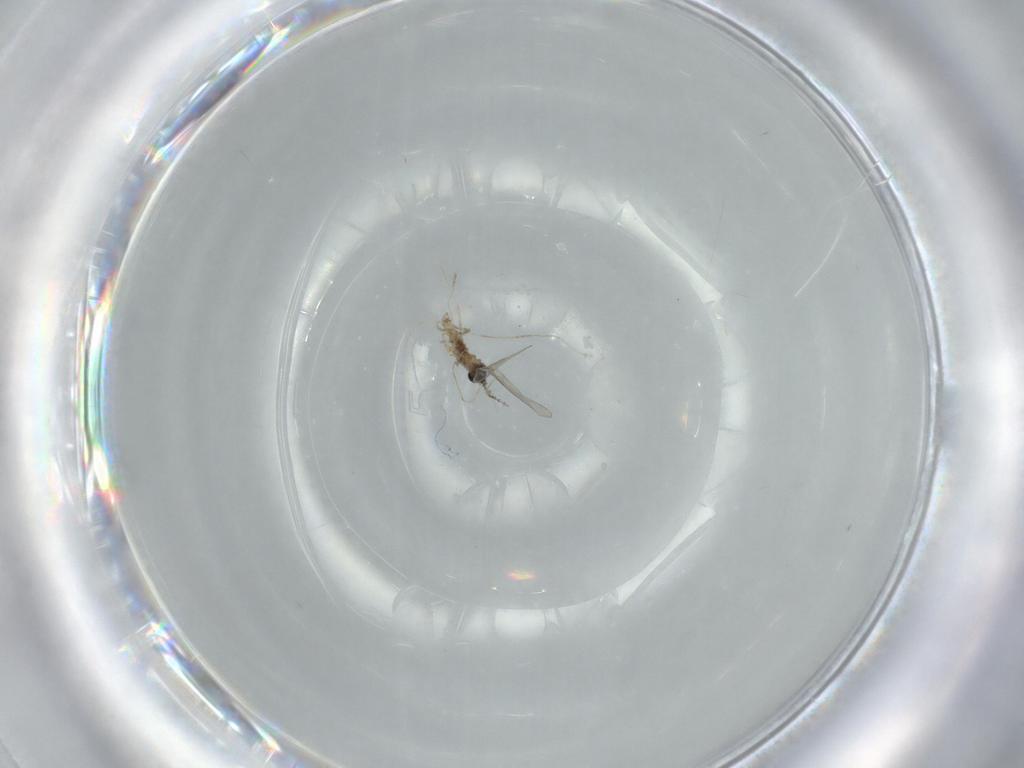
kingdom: Animalia
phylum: Arthropoda
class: Insecta
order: Diptera
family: Cecidomyiidae
